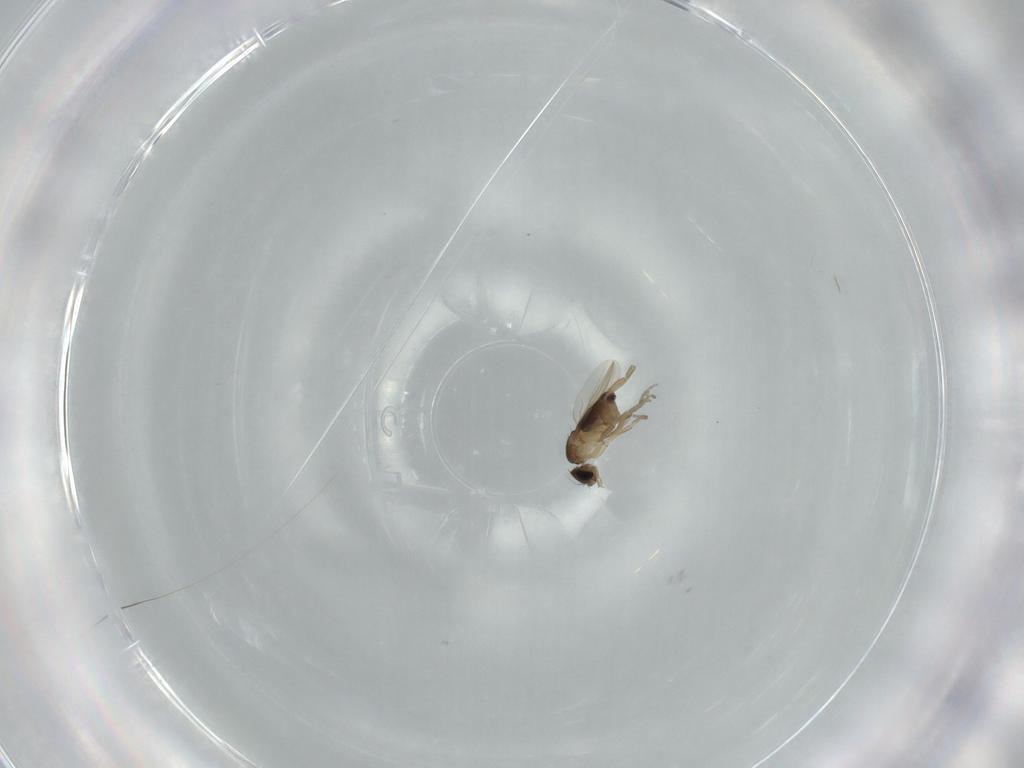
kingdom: Animalia
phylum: Arthropoda
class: Insecta
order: Diptera
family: Phoridae
